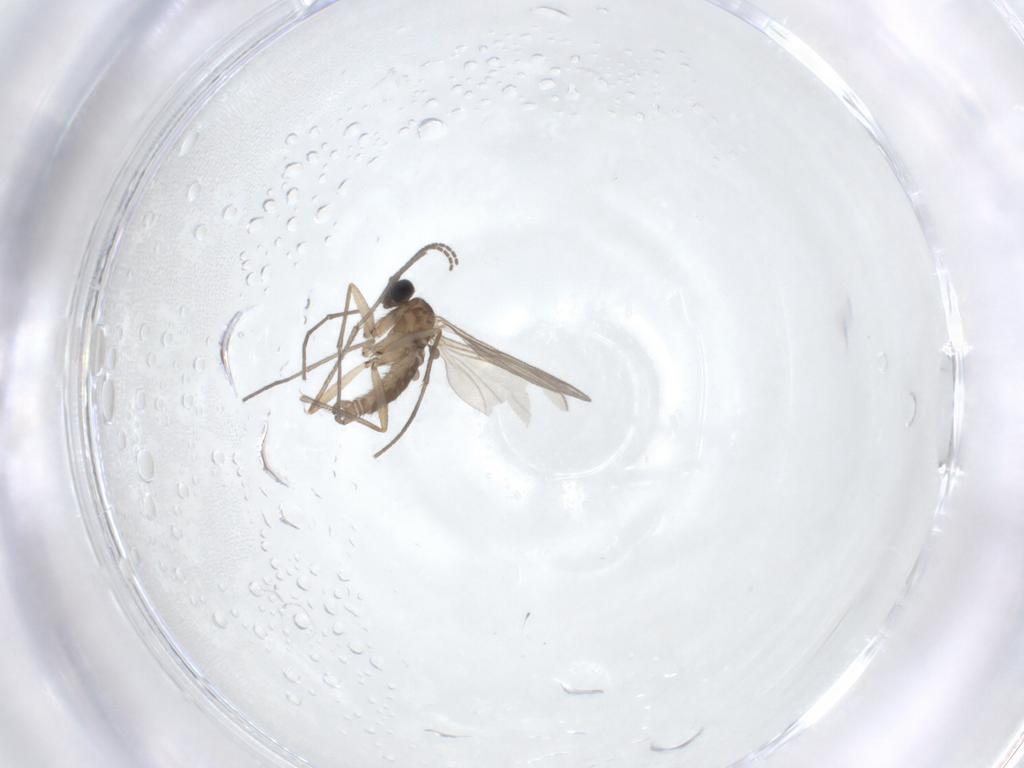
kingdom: Animalia
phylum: Arthropoda
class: Insecta
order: Diptera
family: Sciaridae
